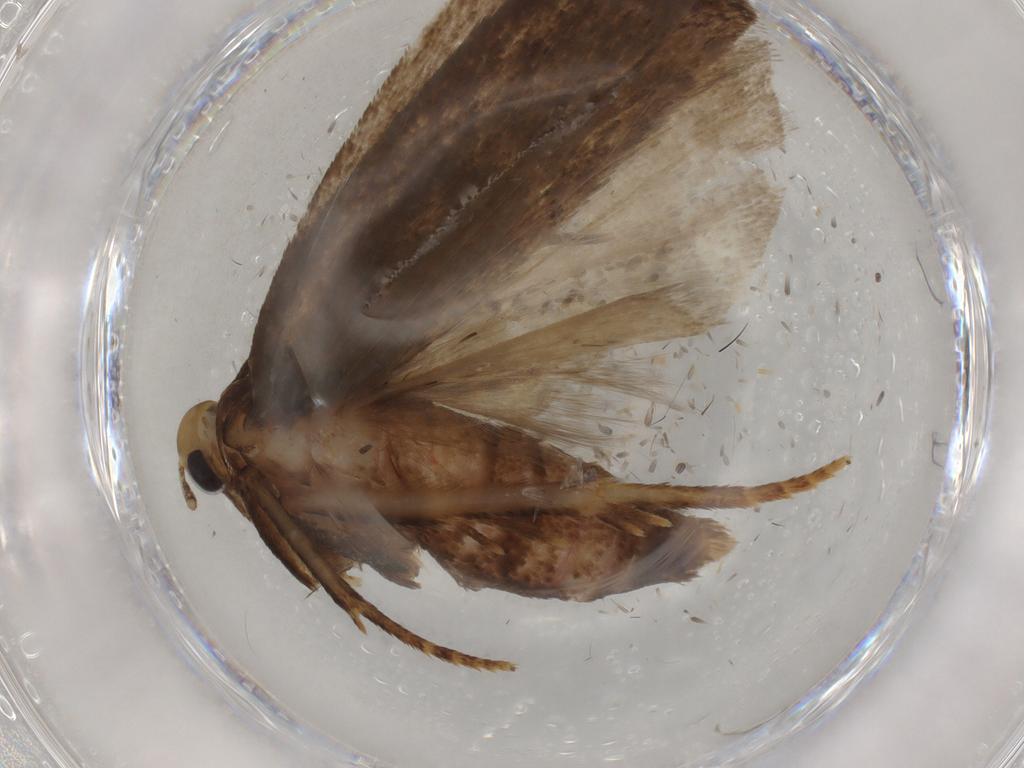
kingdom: Animalia
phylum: Arthropoda
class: Insecta
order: Lepidoptera
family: Autostichidae
